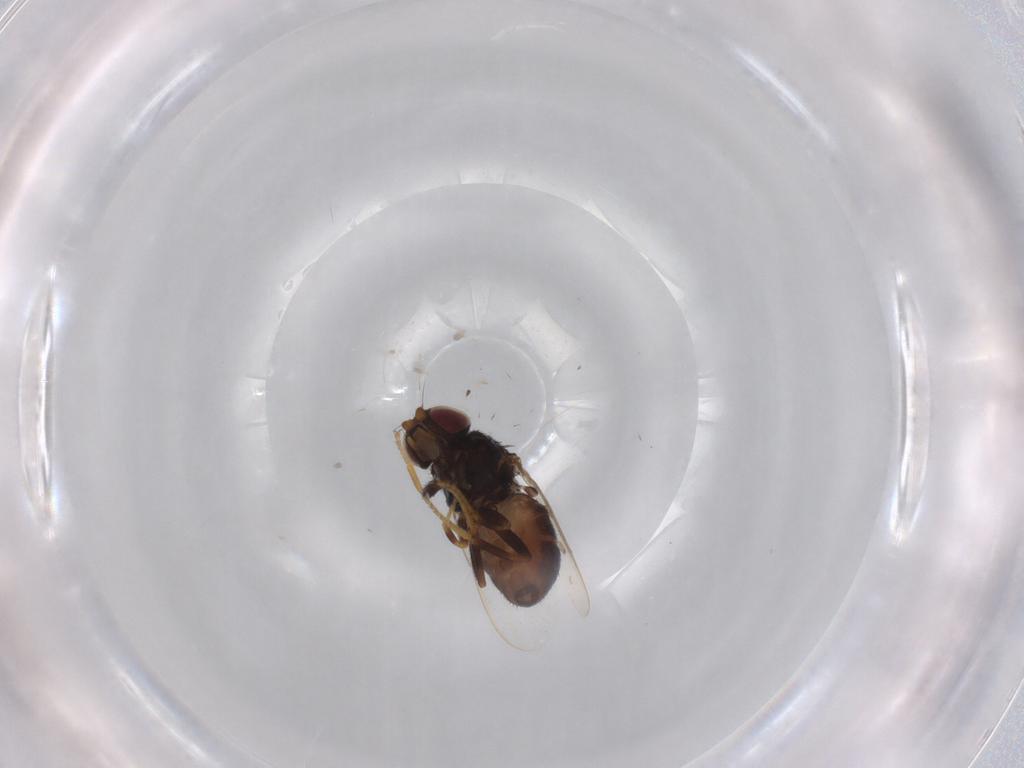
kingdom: Animalia
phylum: Arthropoda
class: Insecta
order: Diptera
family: Chloropidae
